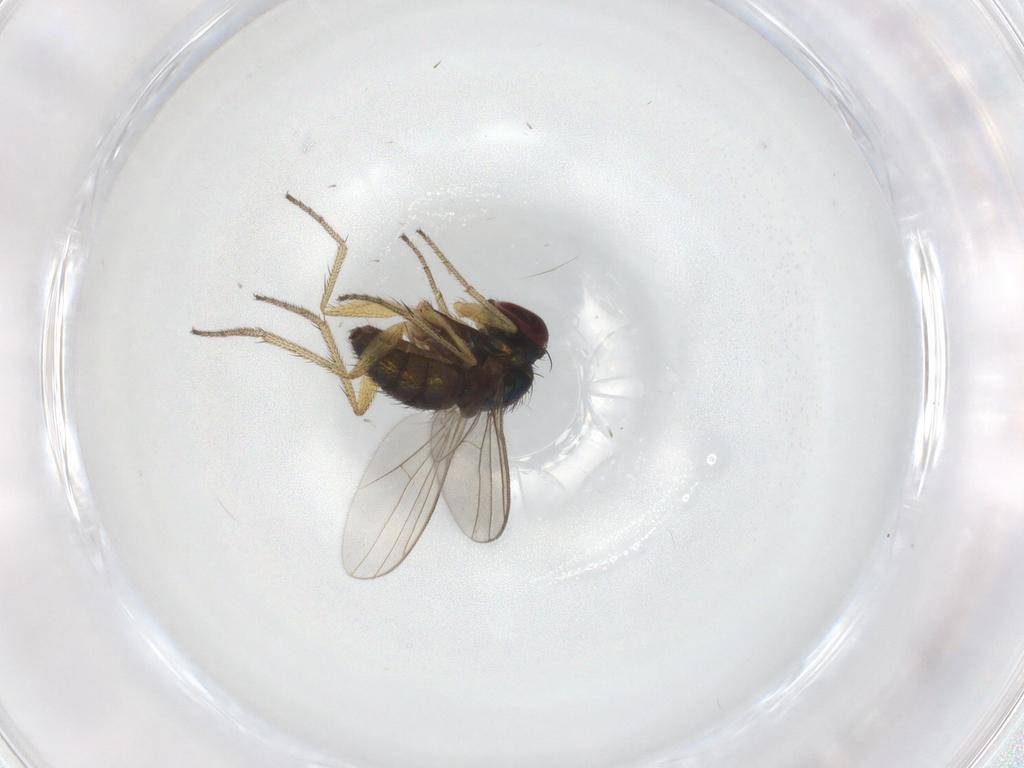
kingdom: Animalia
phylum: Arthropoda
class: Insecta
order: Diptera
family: Dolichopodidae
